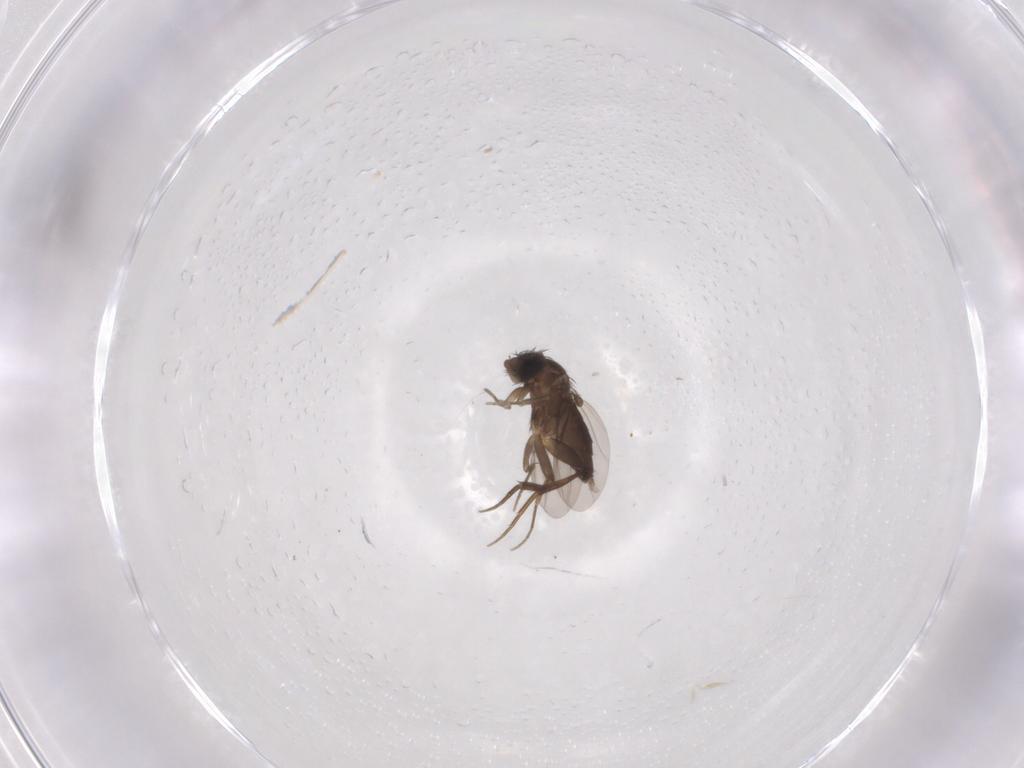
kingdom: Animalia
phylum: Arthropoda
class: Insecta
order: Diptera
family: Phoridae
